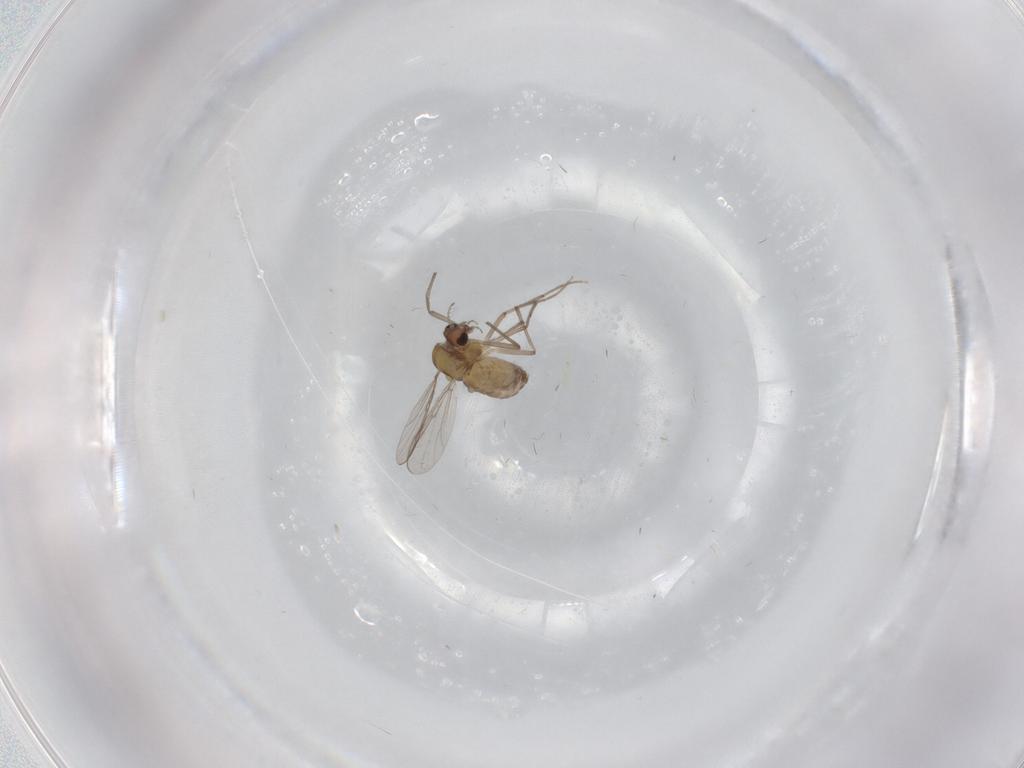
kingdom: Animalia
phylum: Arthropoda
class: Insecta
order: Diptera
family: Chironomidae
